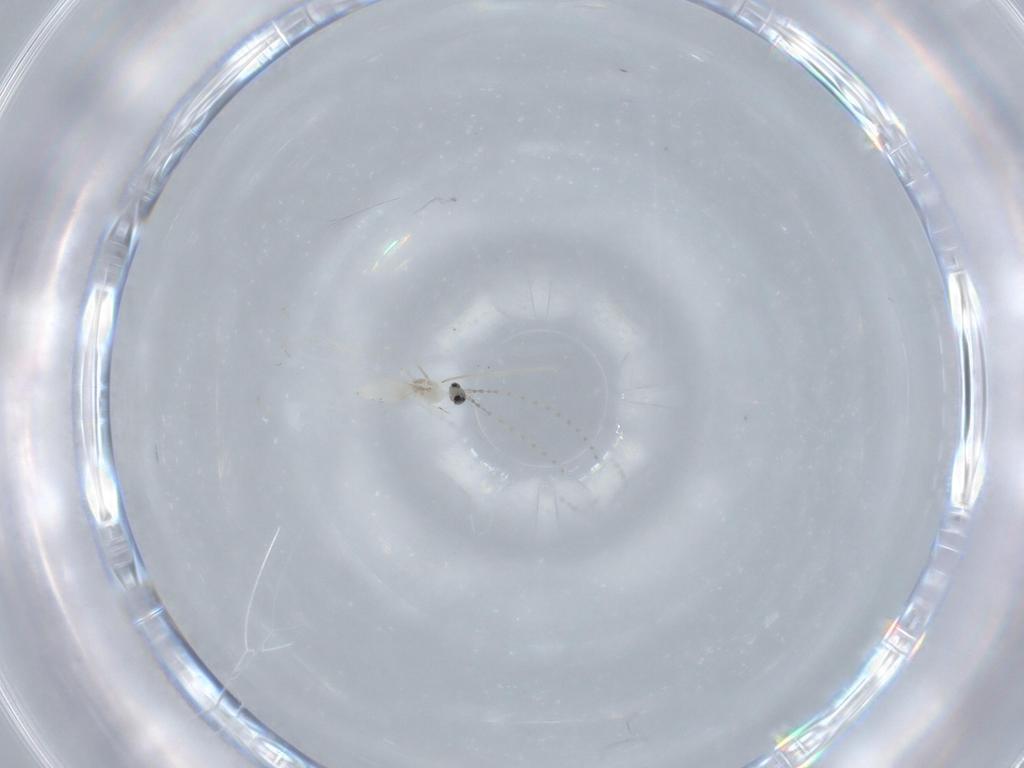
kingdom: Animalia
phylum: Arthropoda
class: Insecta
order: Diptera
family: Cecidomyiidae
